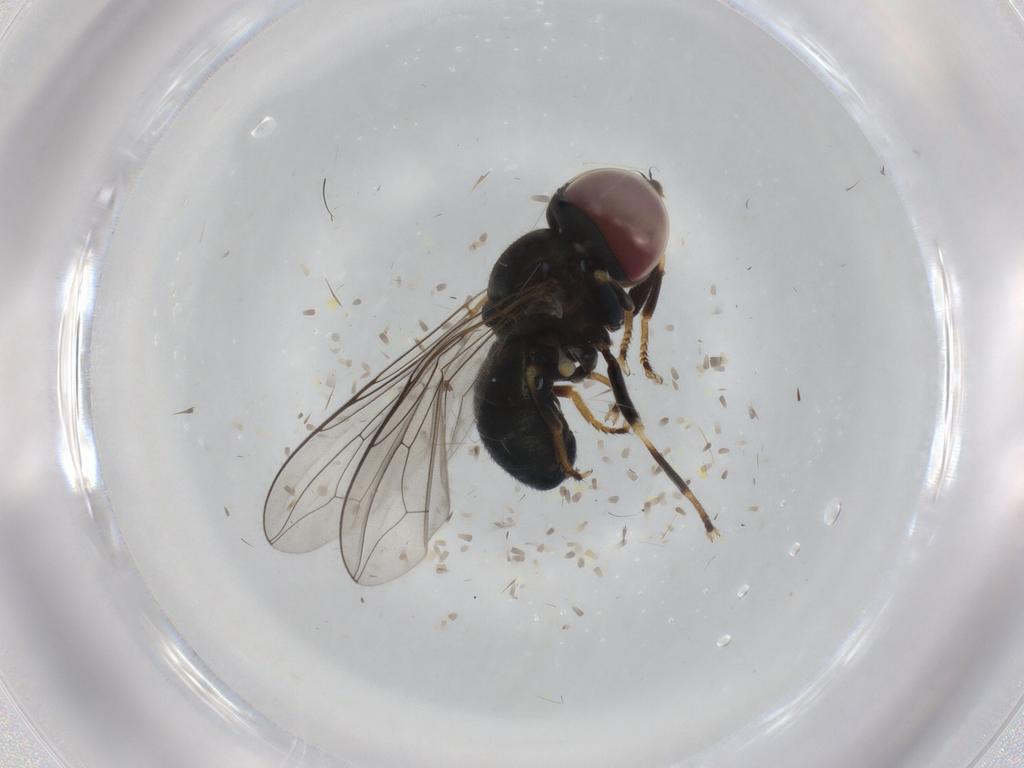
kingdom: Animalia
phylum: Arthropoda
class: Insecta
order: Diptera
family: Pipunculidae
